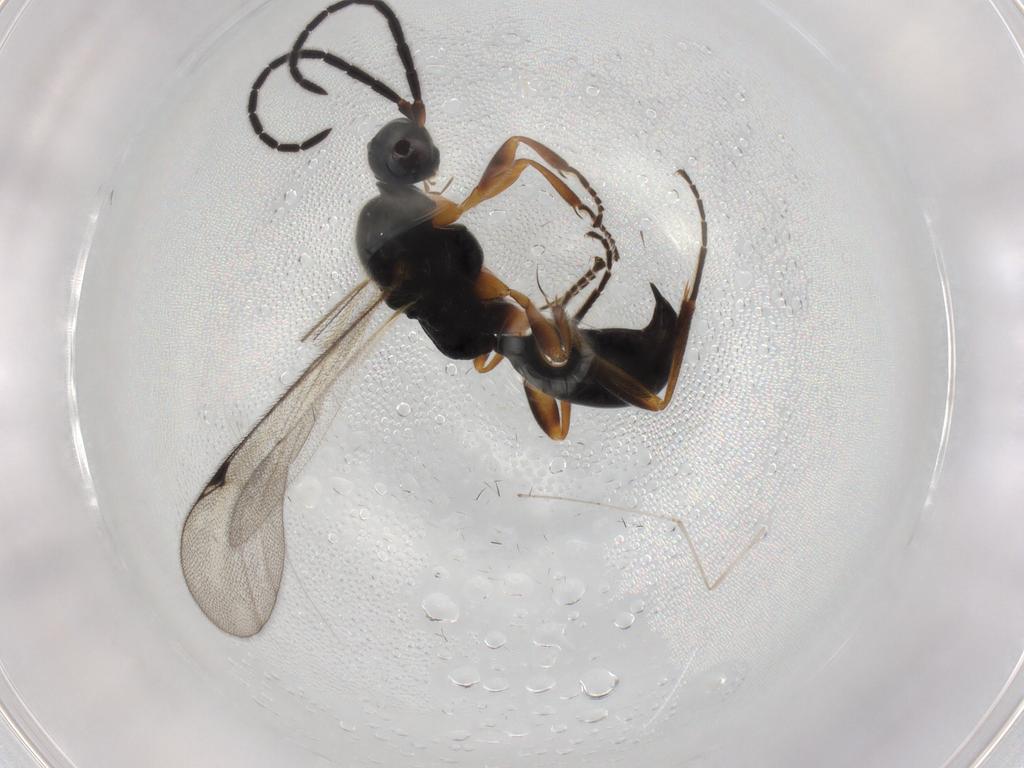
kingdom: Animalia
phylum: Arthropoda
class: Insecta
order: Hymenoptera
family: Proctotrupidae
